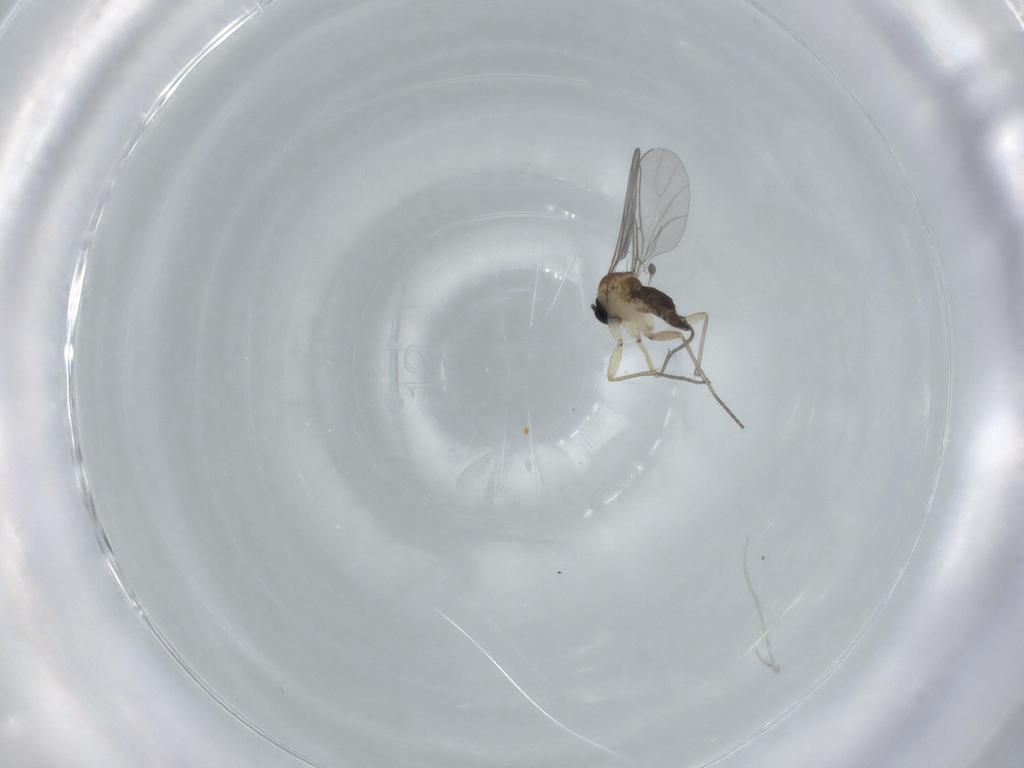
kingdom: Animalia
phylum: Arthropoda
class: Insecta
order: Diptera
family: Sciaridae
